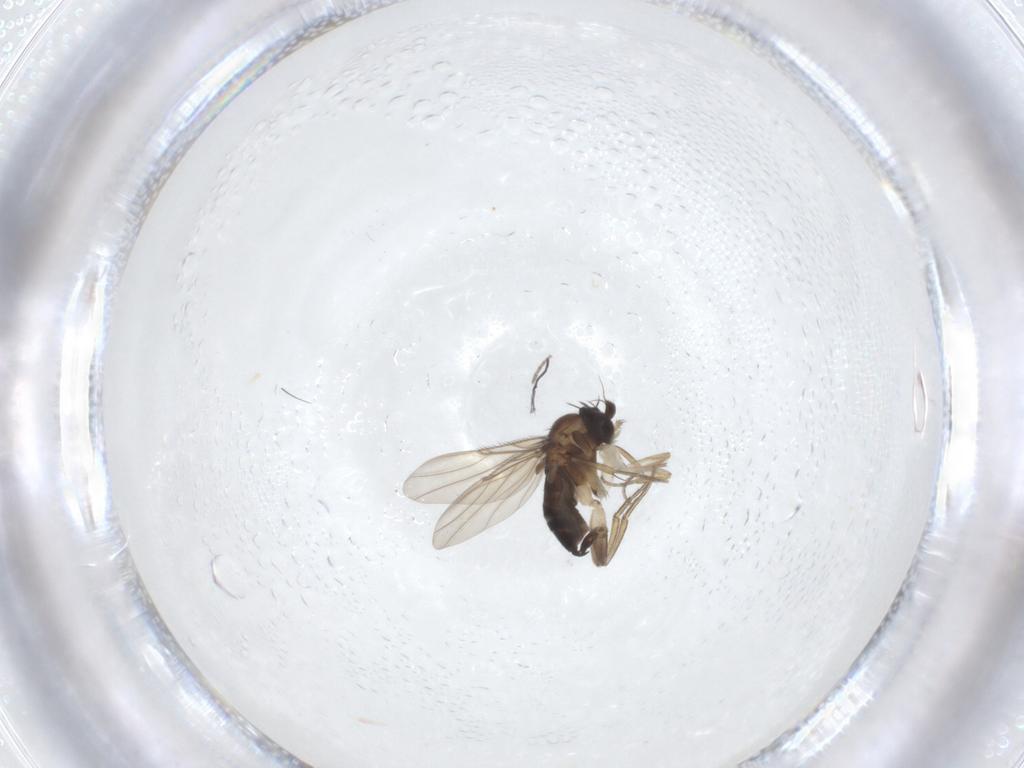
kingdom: Animalia
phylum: Arthropoda
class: Insecta
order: Diptera
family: Phoridae
